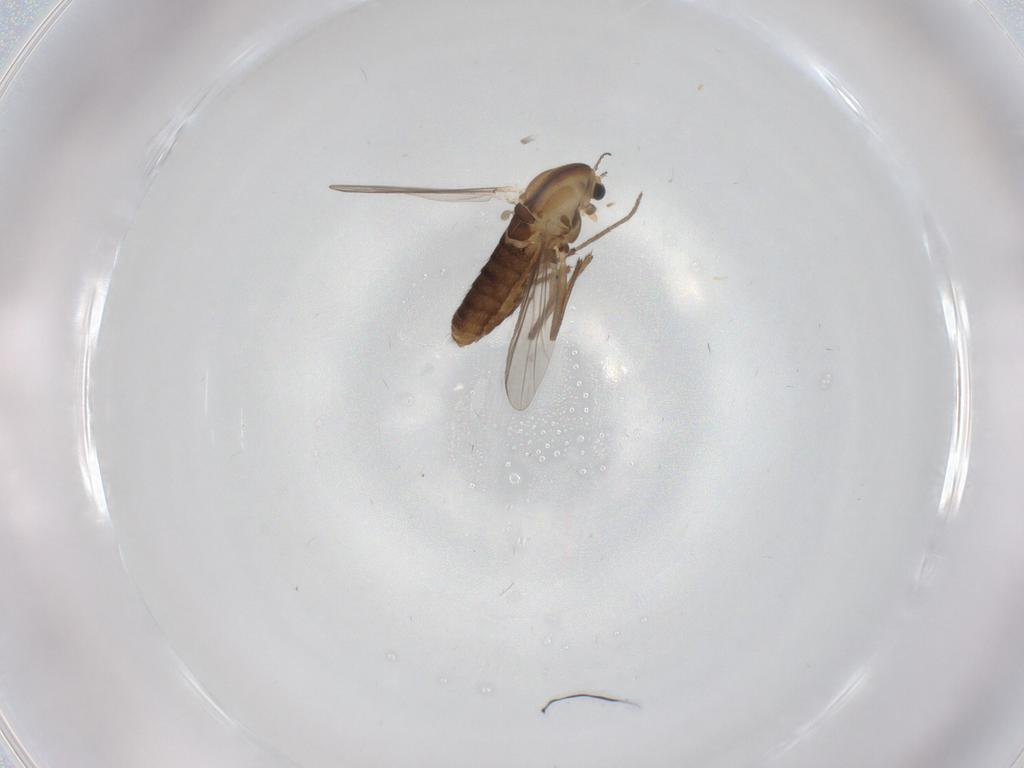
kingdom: Animalia
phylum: Arthropoda
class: Insecta
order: Diptera
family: Chironomidae
